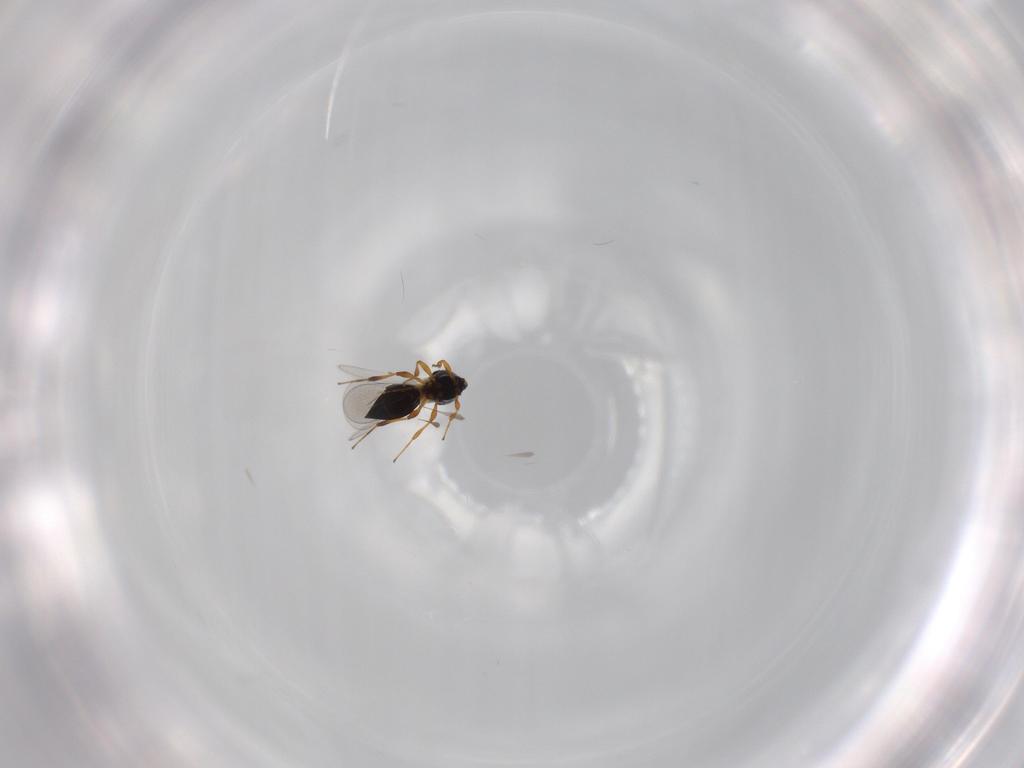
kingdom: Animalia
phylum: Arthropoda
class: Insecta
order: Hymenoptera
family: Platygastridae
